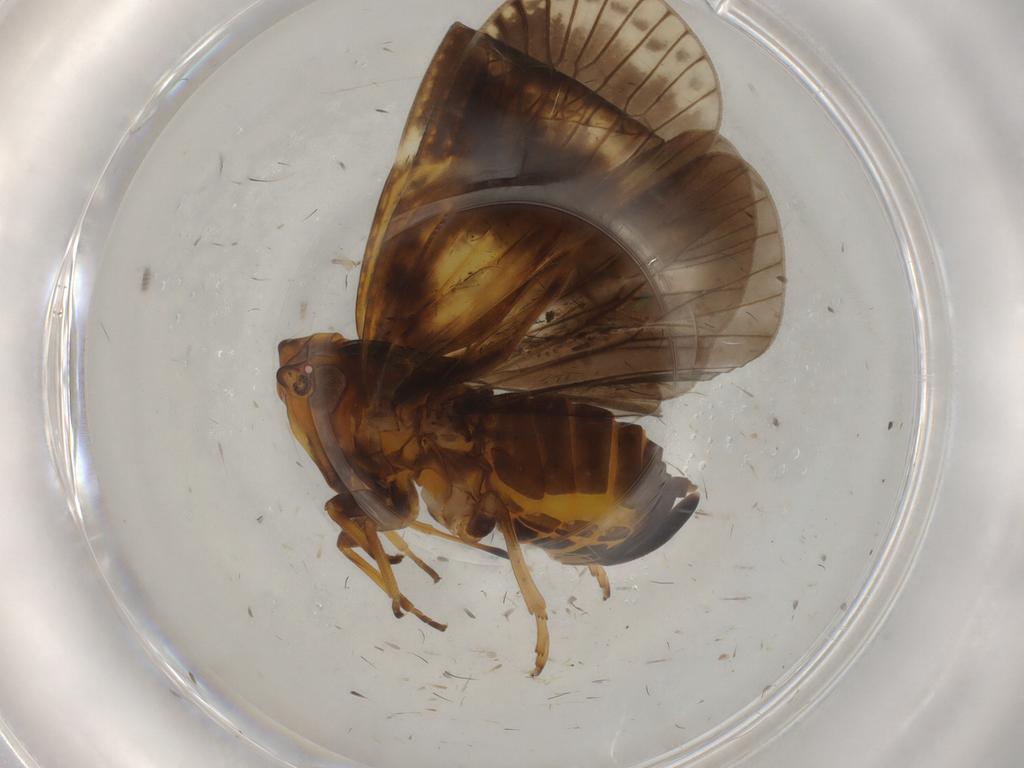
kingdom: Animalia
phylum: Arthropoda
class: Insecta
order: Hemiptera
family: Cixiidae
